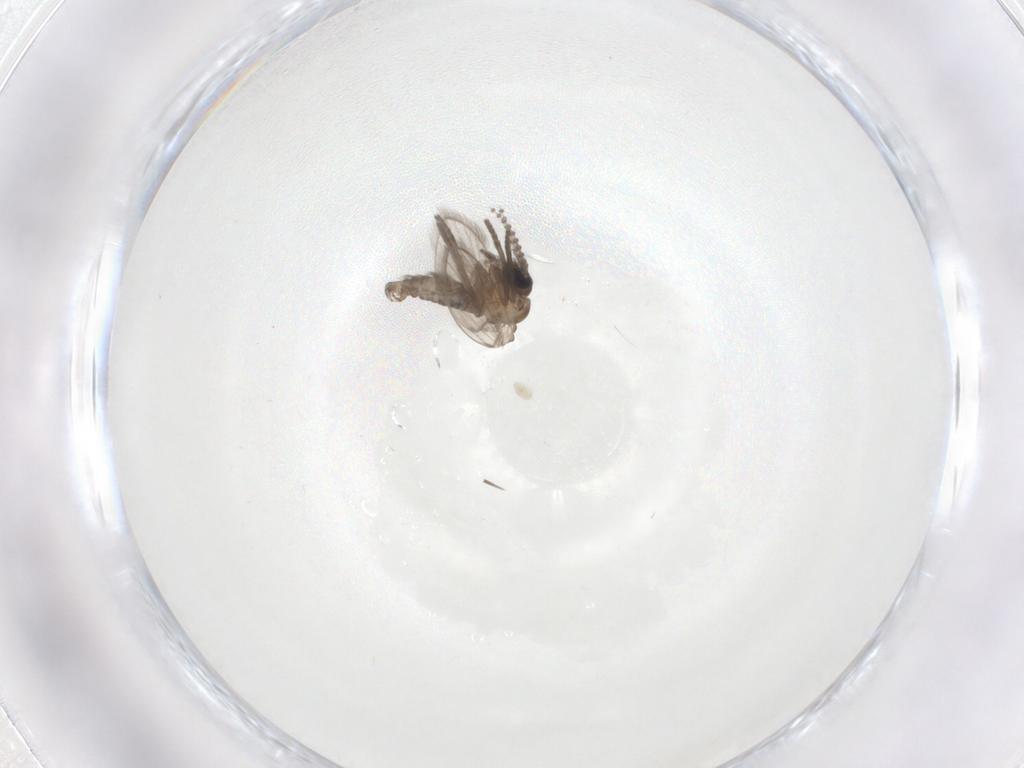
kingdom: Animalia
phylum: Arthropoda
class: Insecta
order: Diptera
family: Psychodidae
